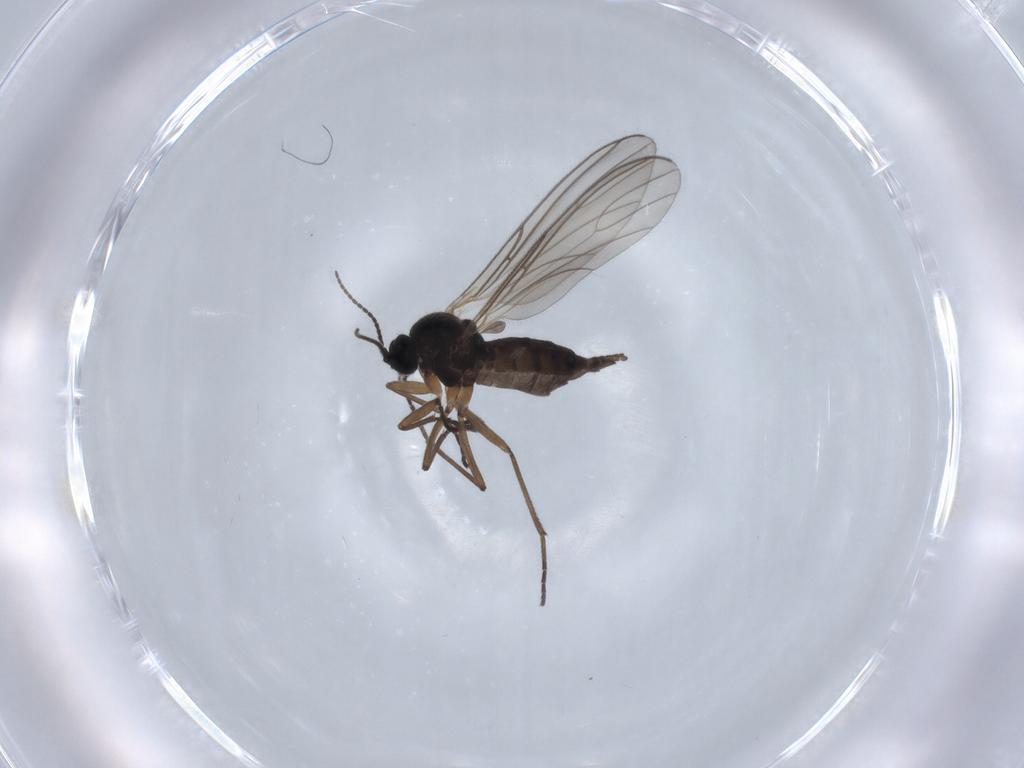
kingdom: Animalia
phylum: Arthropoda
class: Insecta
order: Diptera
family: Sciaridae
